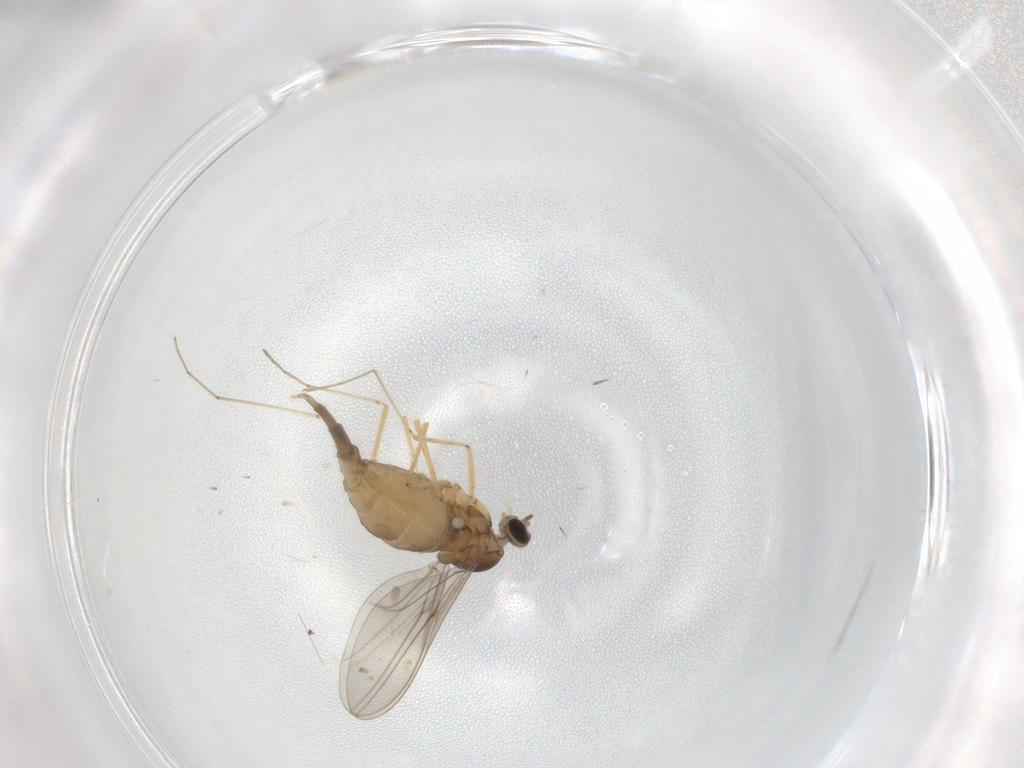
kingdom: Animalia
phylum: Arthropoda
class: Insecta
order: Diptera
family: Cecidomyiidae
